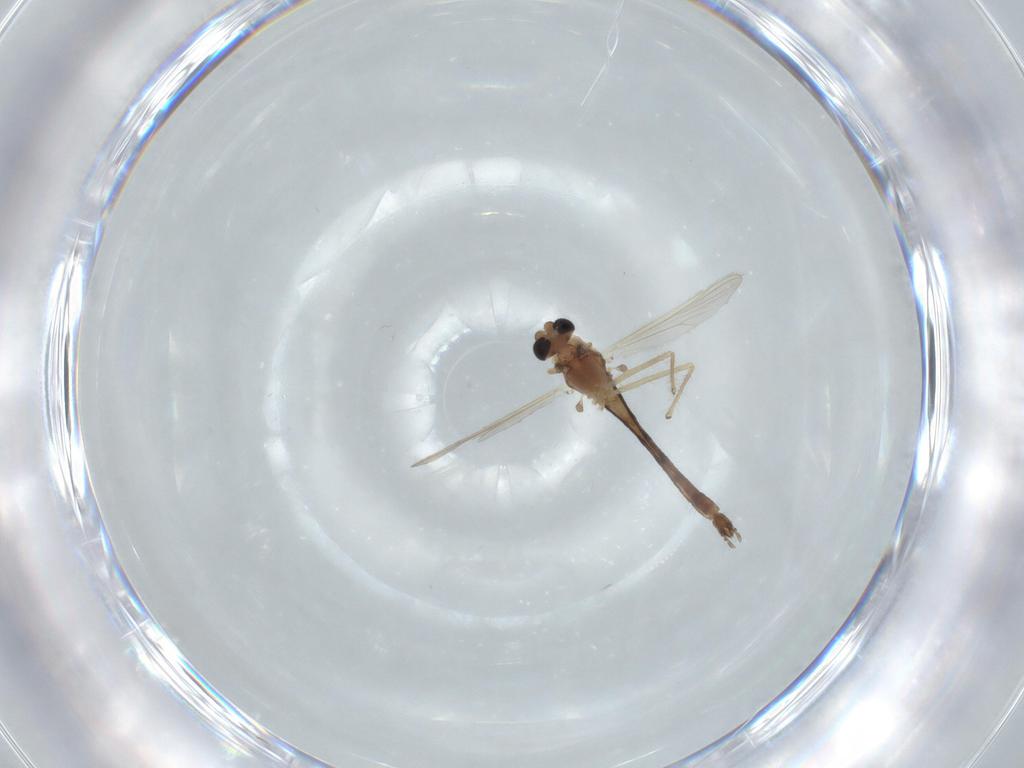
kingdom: Animalia
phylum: Arthropoda
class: Insecta
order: Diptera
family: Chironomidae
